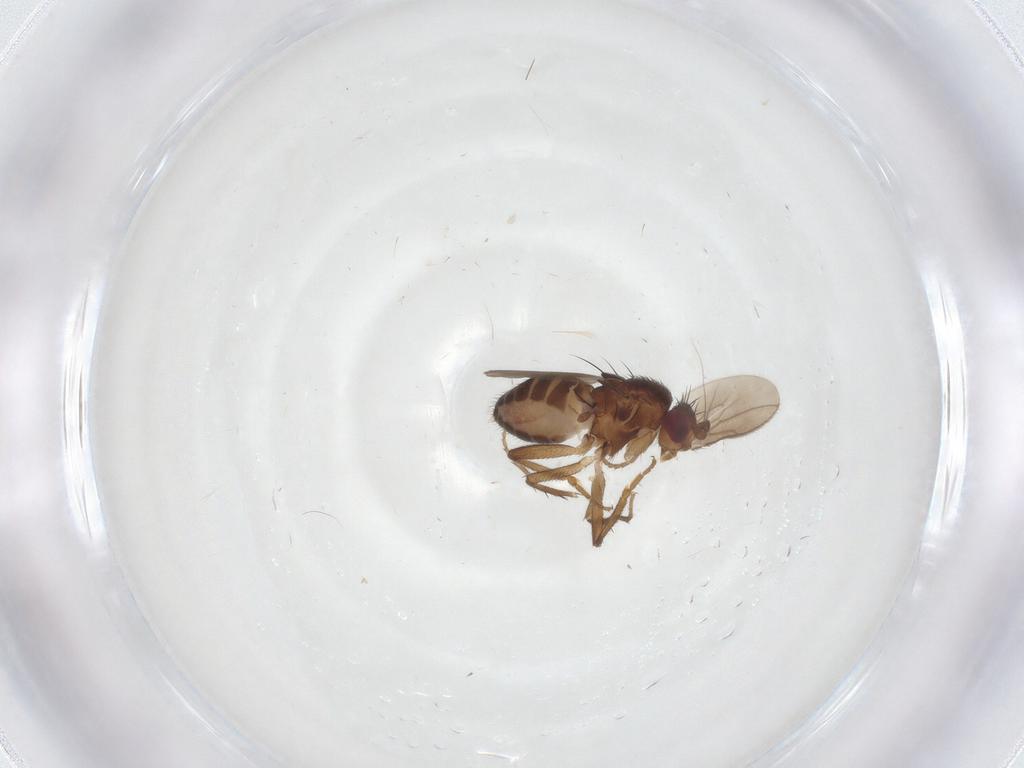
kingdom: Animalia
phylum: Arthropoda
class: Insecta
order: Diptera
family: Sphaeroceridae
